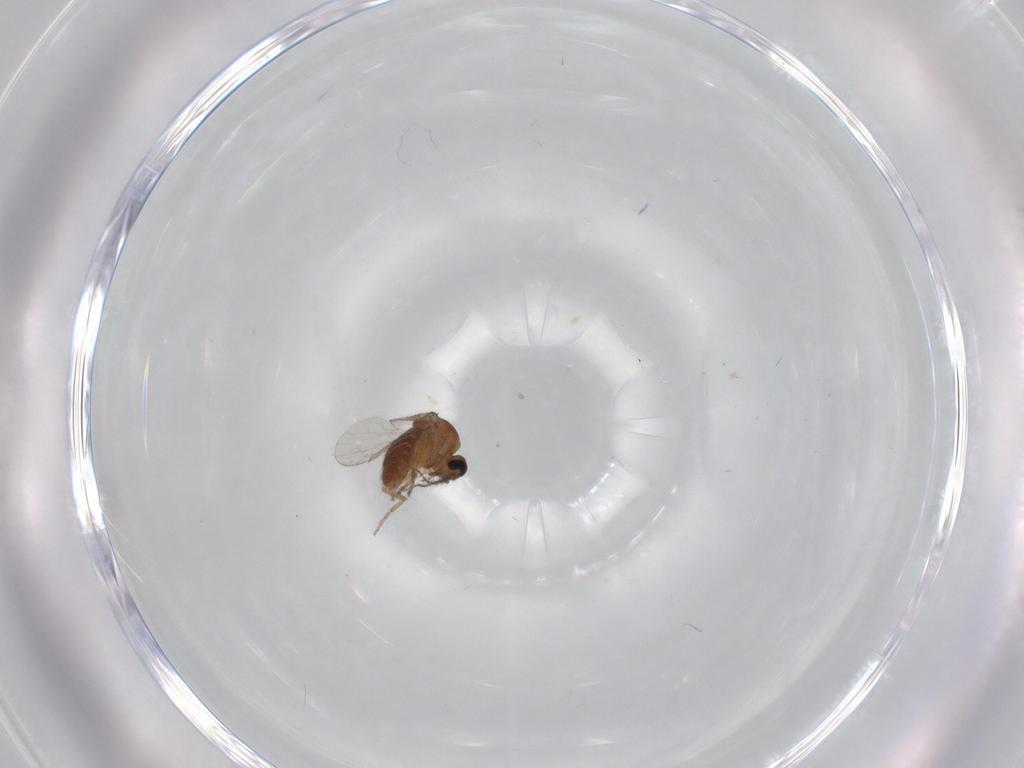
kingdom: Animalia
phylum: Arthropoda
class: Insecta
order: Diptera
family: Ceratopogonidae
